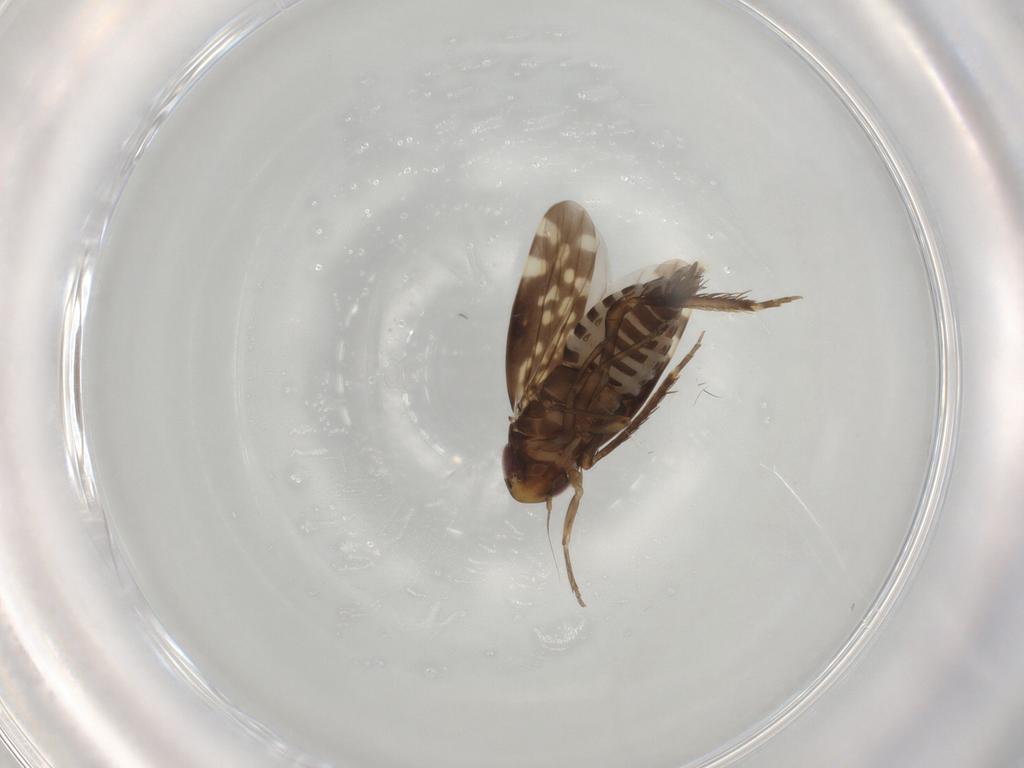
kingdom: Animalia
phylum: Arthropoda
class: Insecta
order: Hemiptera
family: Cicadellidae
